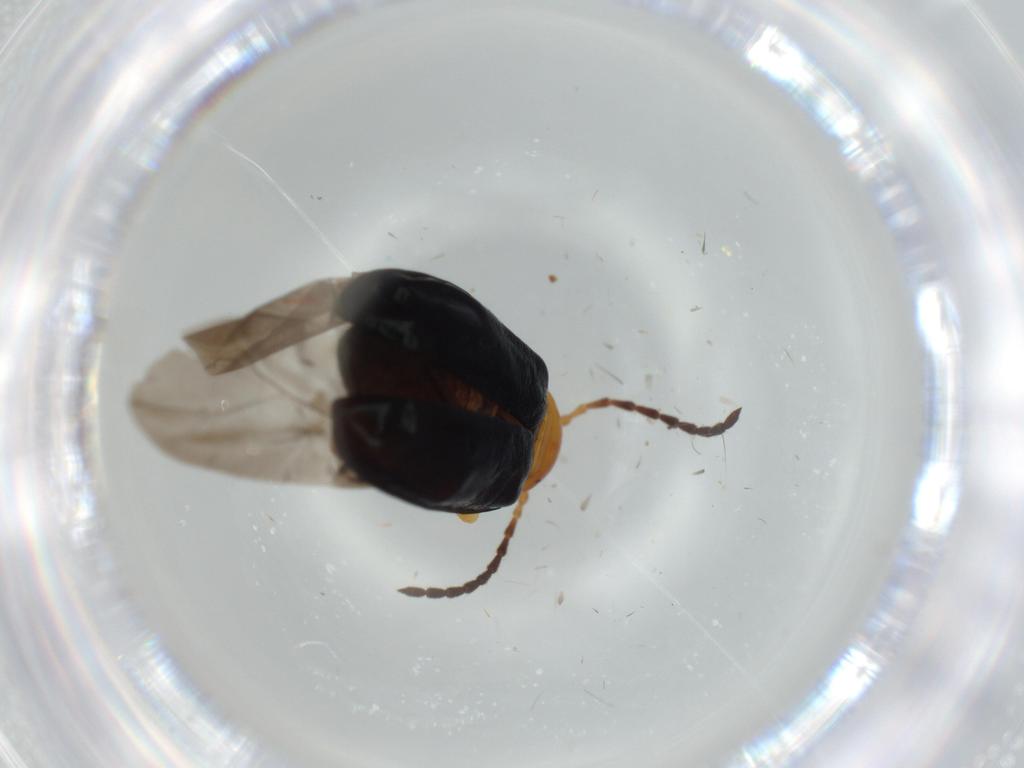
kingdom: Animalia
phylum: Arthropoda
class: Insecta
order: Coleoptera
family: Chrysomelidae
